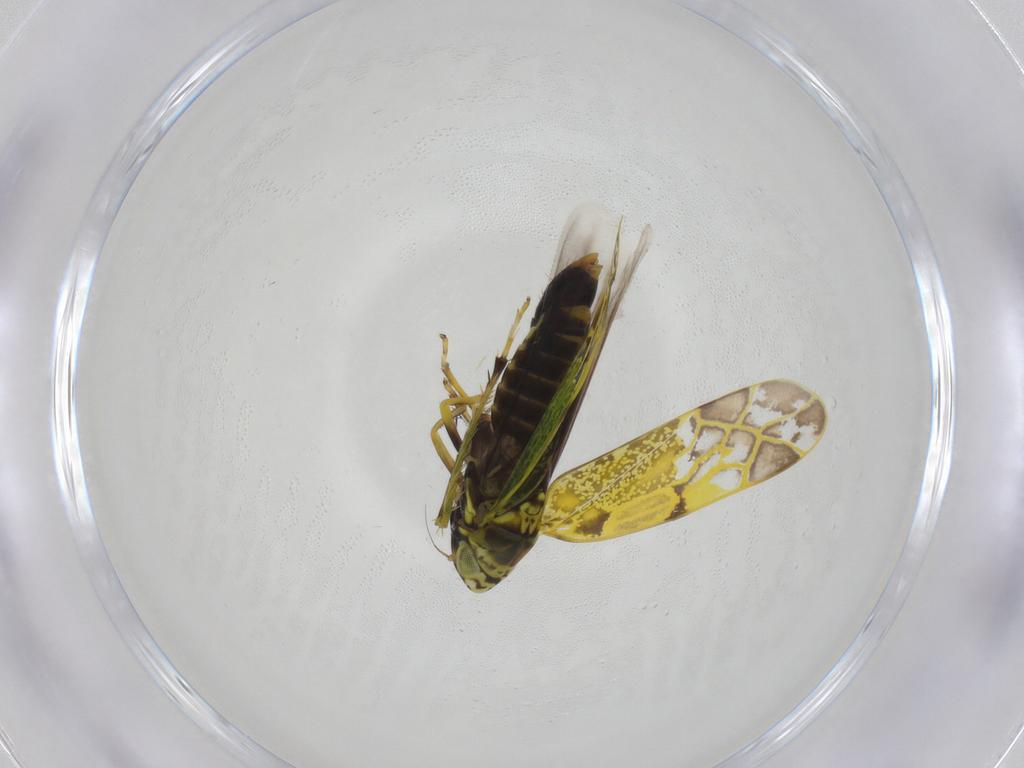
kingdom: Animalia
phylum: Arthropoda
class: Insecta
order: Hemiptera
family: Cicadellidae
